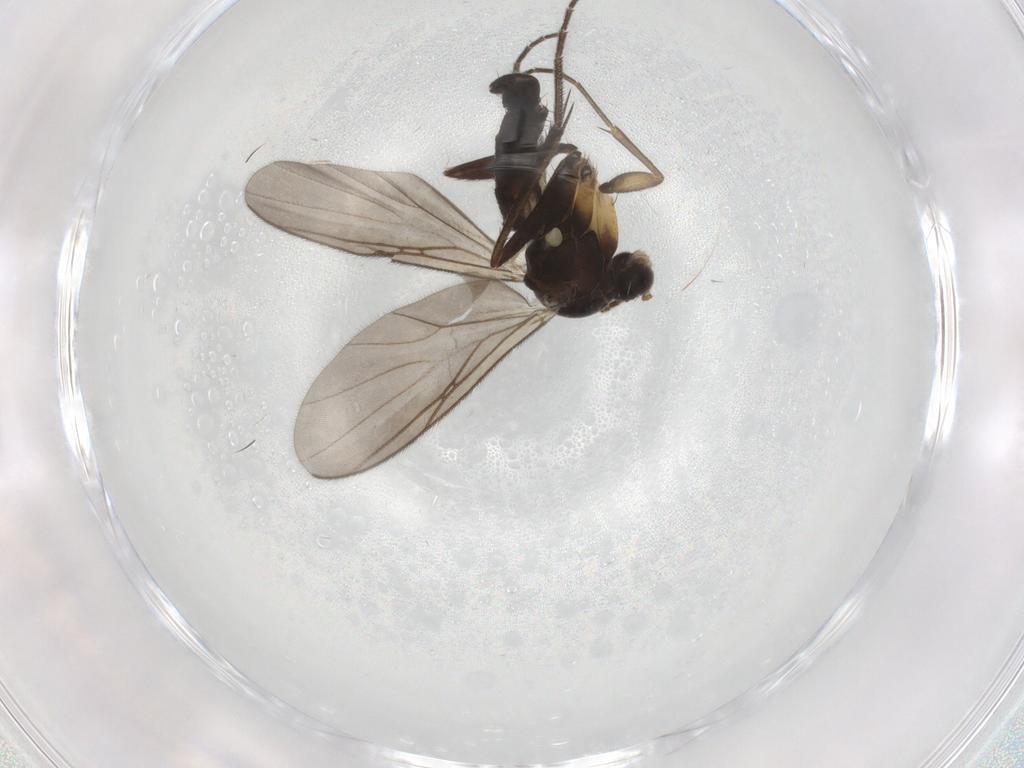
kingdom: Animalia
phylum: Arthropoda
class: Insecta
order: Diptera
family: Mycetophilidae
